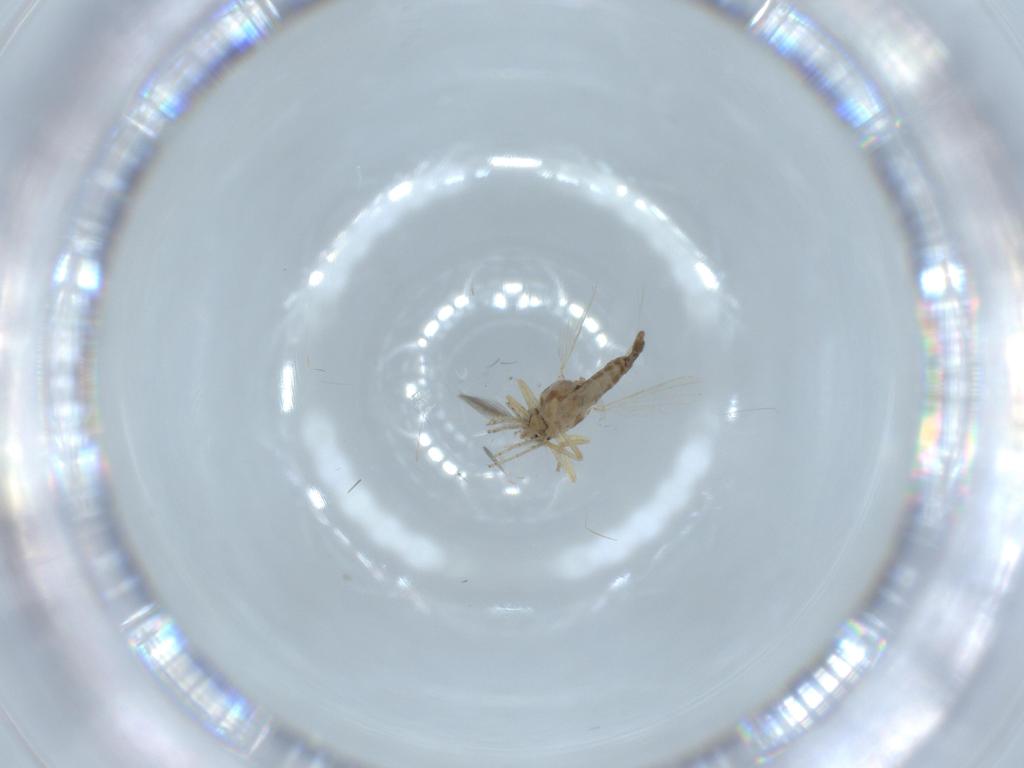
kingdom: Animalia
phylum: Arthropoda
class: Insecta
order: Diptera
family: Ceratopogonidae
